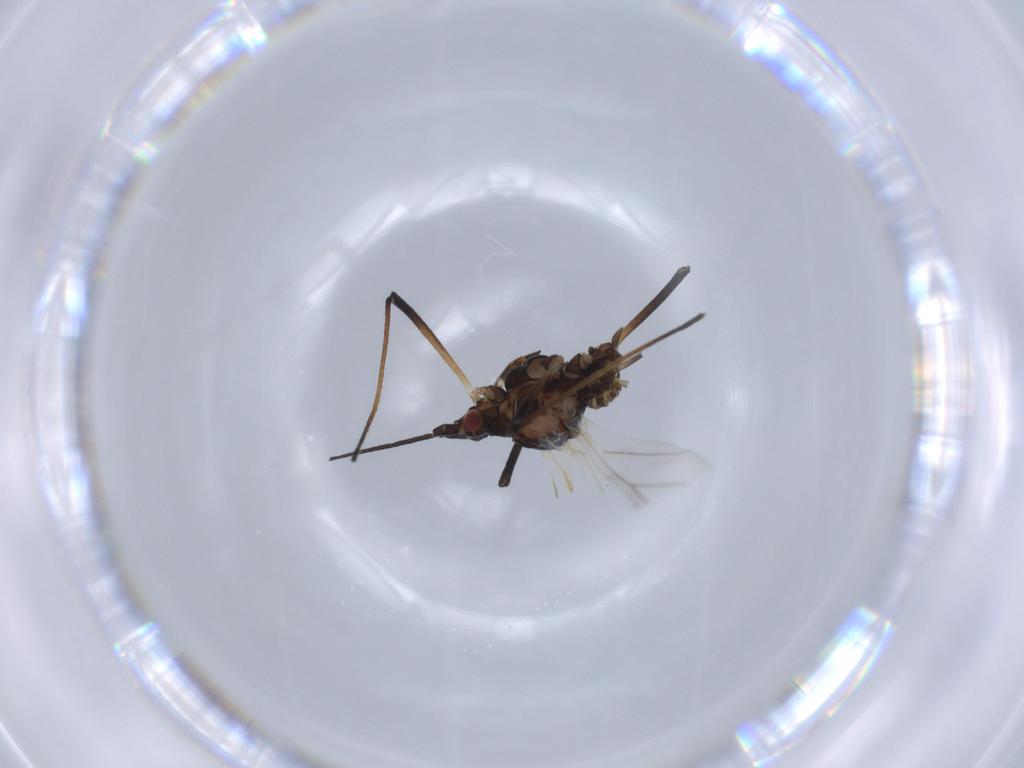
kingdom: Animalia
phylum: Arthropoda
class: Insecta
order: Hemiptera
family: Aphididae
